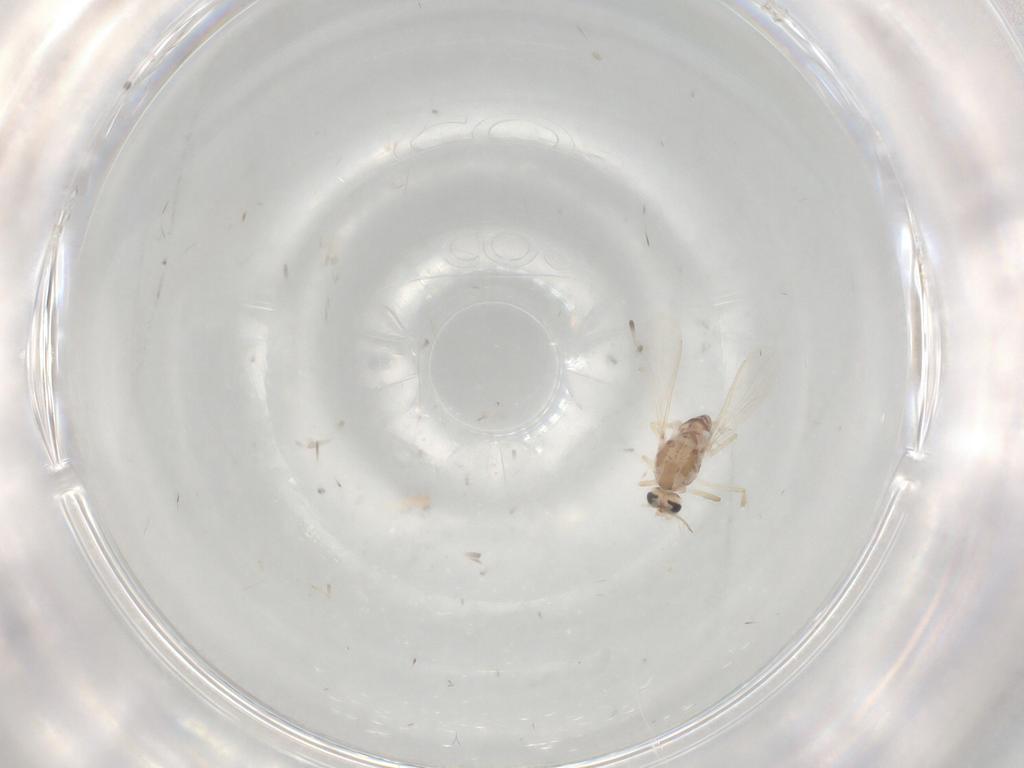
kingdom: Animalia
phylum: Arthropoda
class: Insecta
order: Diptera
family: Chironomidae
